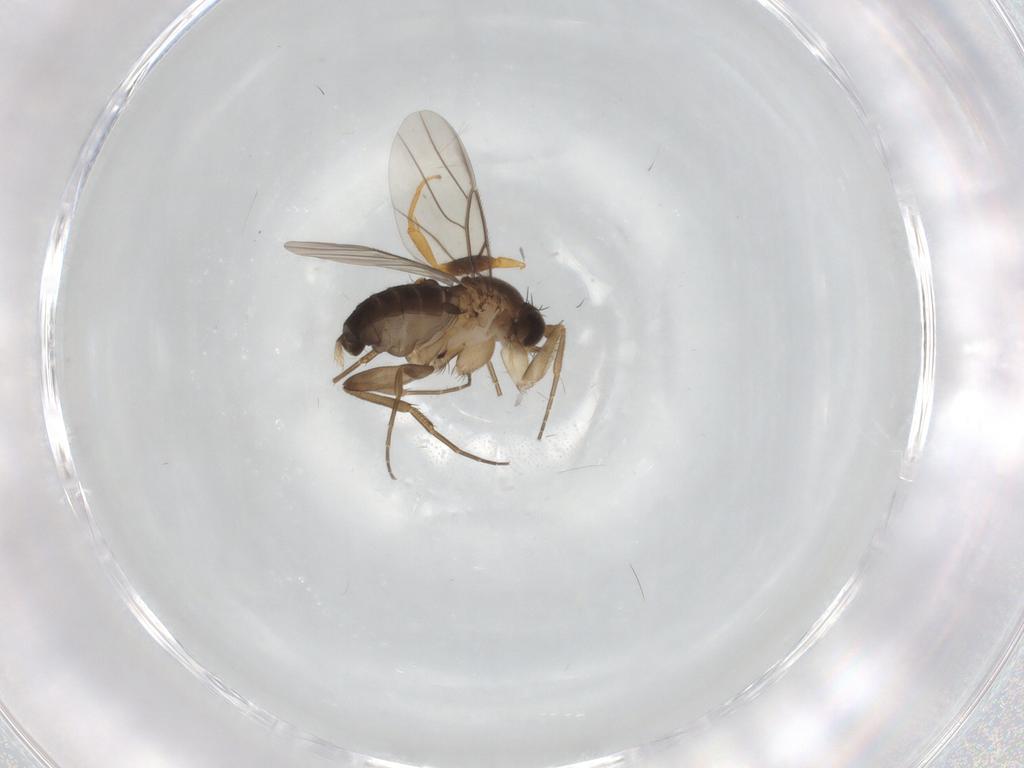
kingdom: Animalia
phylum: Arthropoda
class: Insecta
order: Diptera
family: Phoridae
